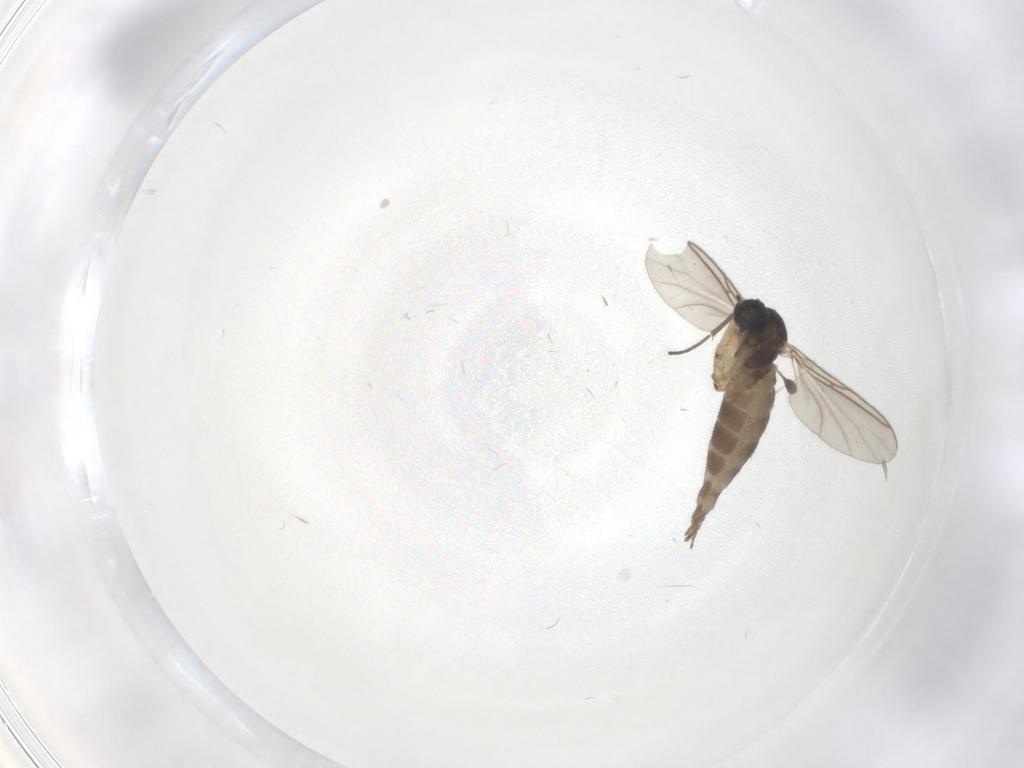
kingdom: Animalia
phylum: Arthropoda
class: Insecta
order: Diptera
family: Sciaridae
